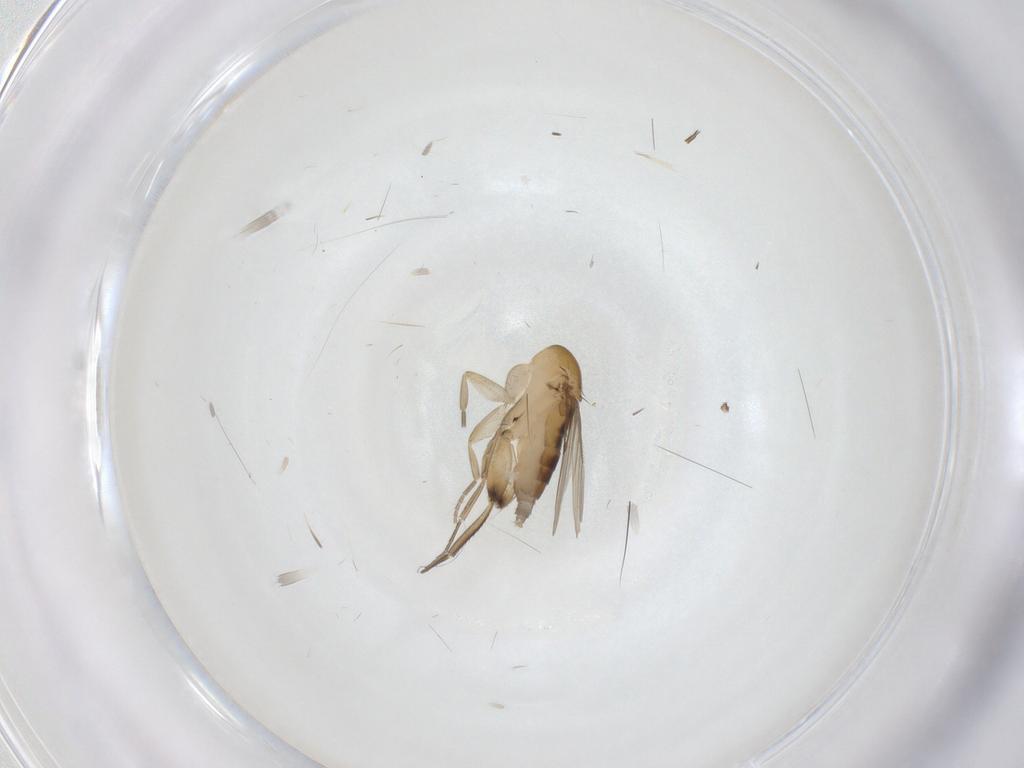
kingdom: Animalia
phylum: Arthropoda
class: Insecta
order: Diptera
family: Phoridae
